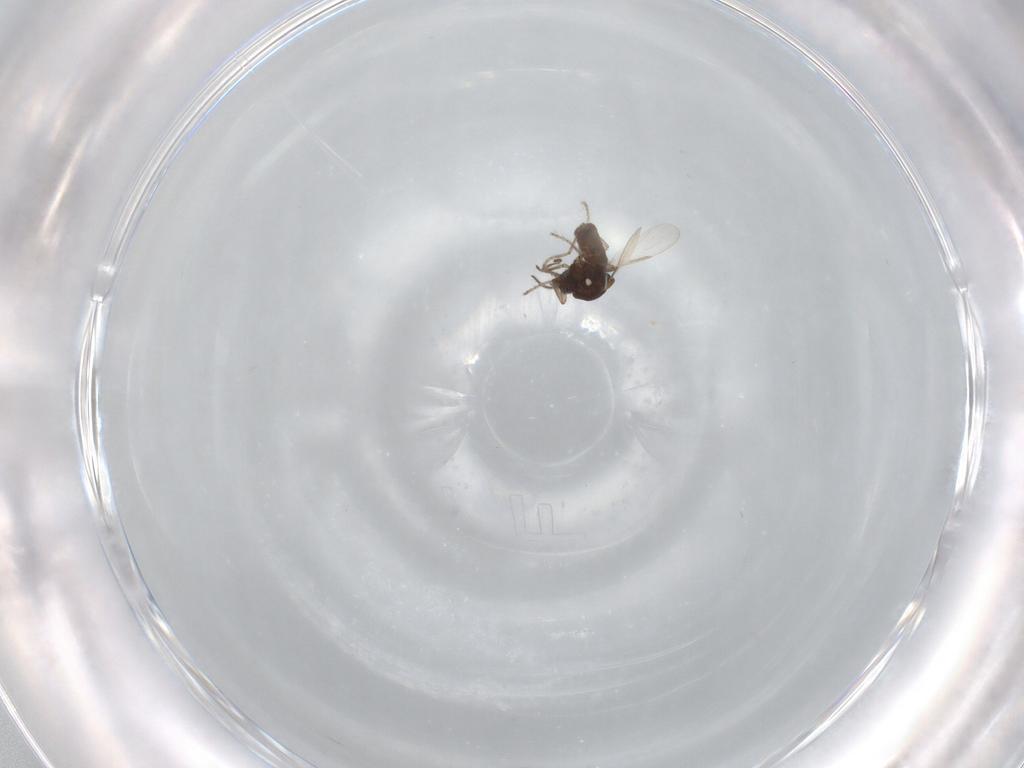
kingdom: Animalia
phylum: Arthropoda
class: Insecta
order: Diptera
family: Ceratopogonidae
